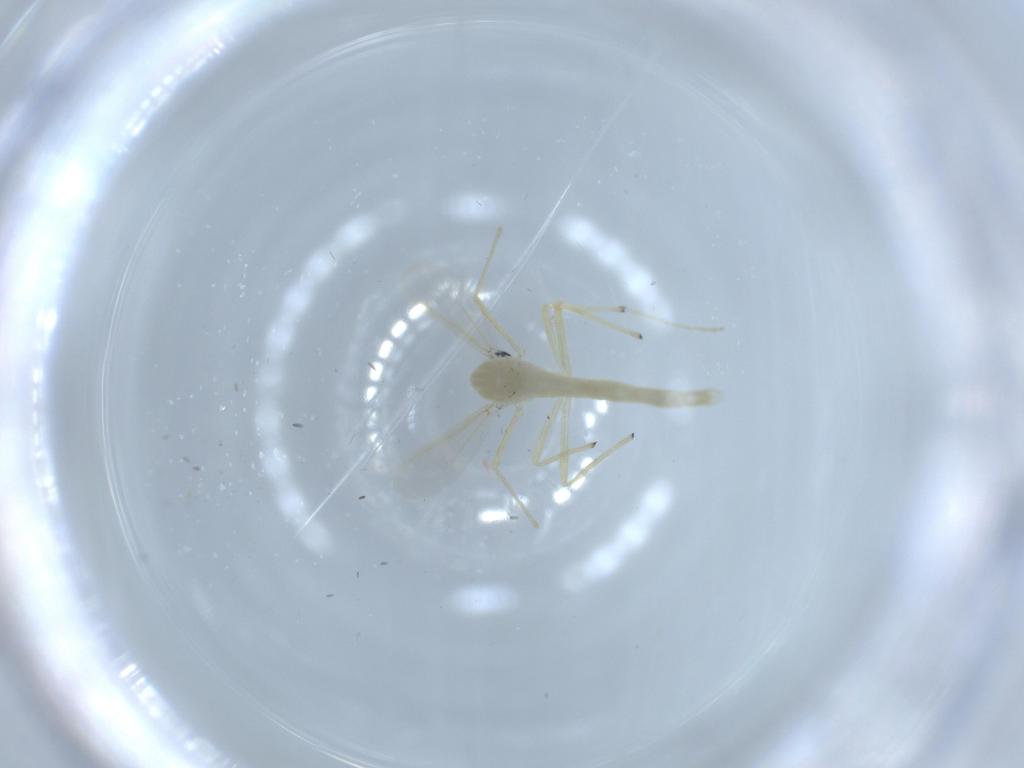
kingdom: Animalia
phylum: Arthropoda
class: Insecta
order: Diptera
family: Chironomidae
